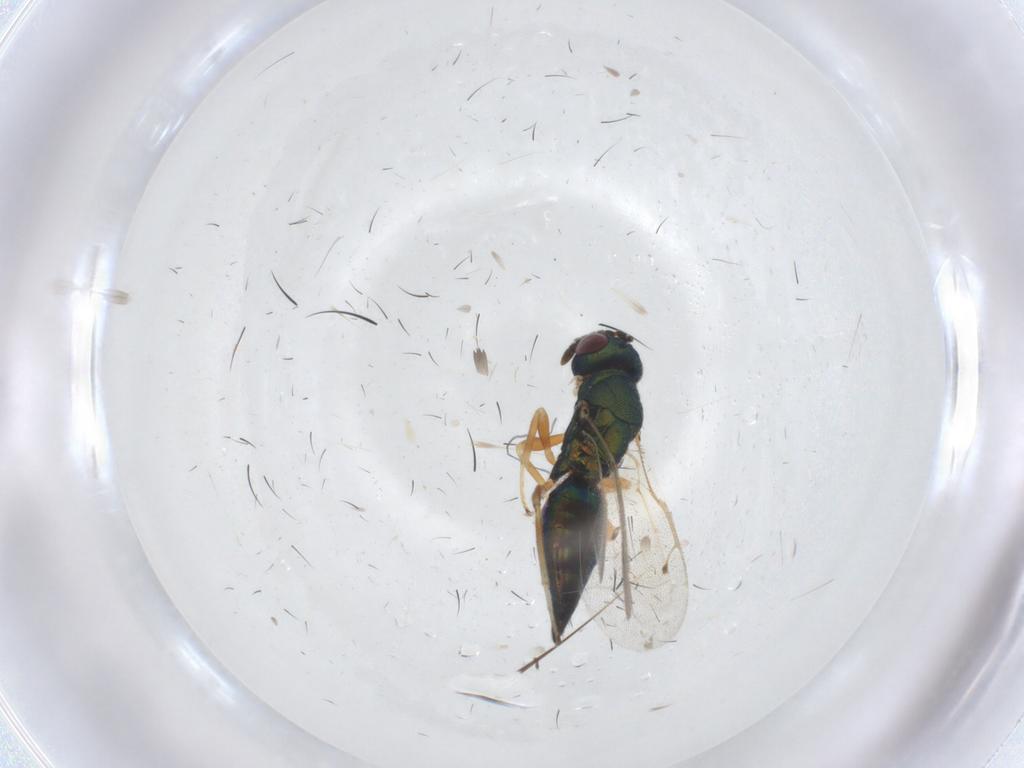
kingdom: Animalia
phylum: Arthropoda
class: Insecta
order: Hymenoptera
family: Pteromalidae
